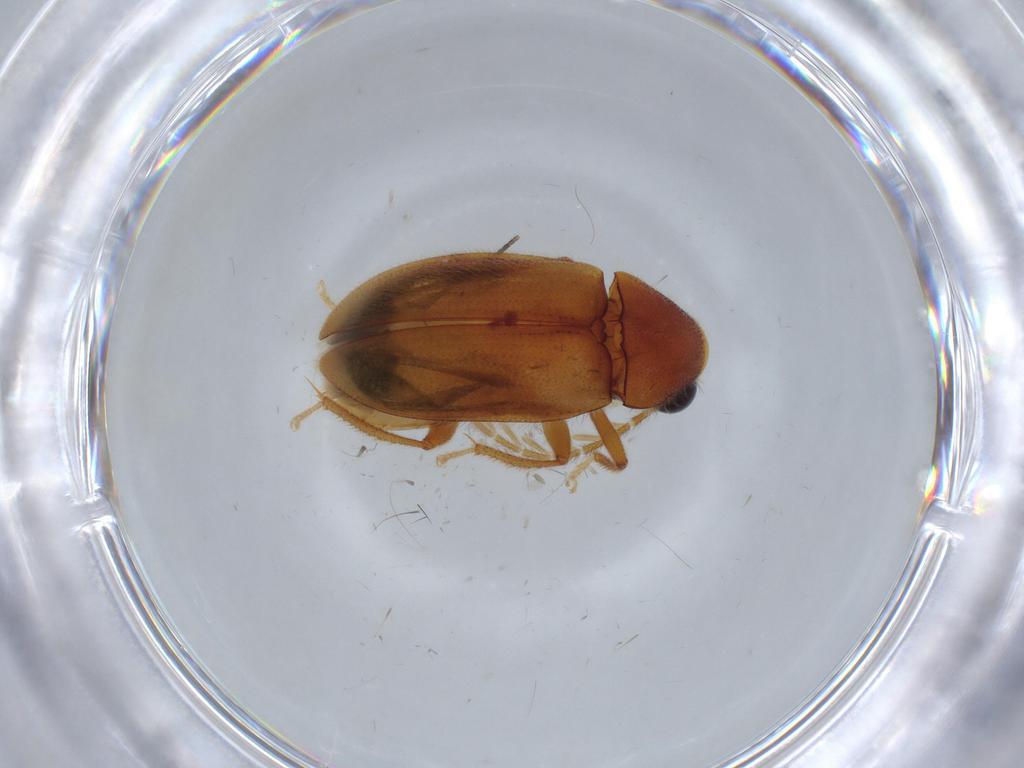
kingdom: Animalia
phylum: Arthropoda
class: Insecta
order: Coleoptera
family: Ptilodactylidae
